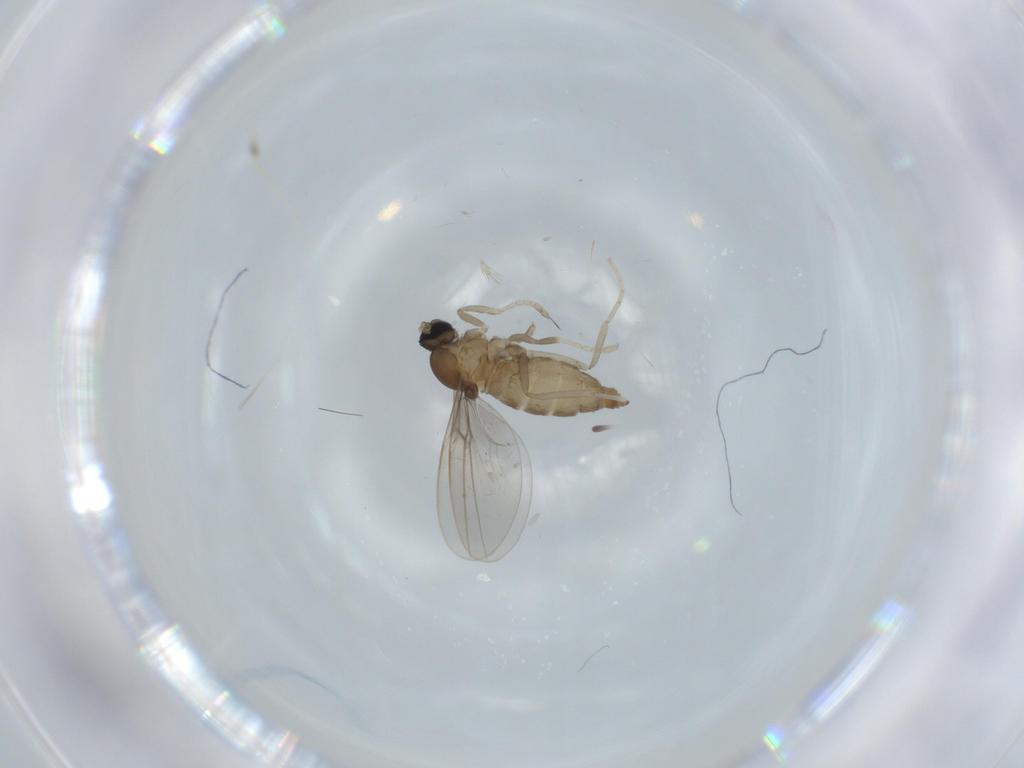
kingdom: Animalia
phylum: Arthropoda
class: Insecta
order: Diptera
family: Cecidomyiidae
